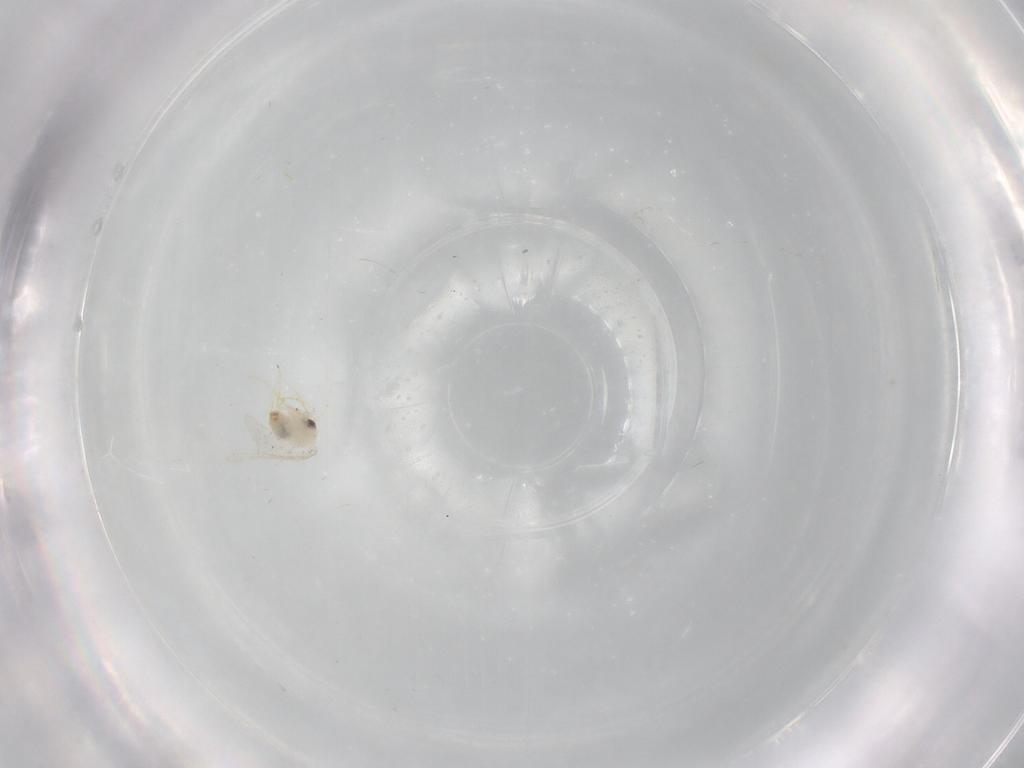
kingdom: Animalia
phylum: Arthropoda
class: Insecta
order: Hemiptera
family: Aleyrodidae
